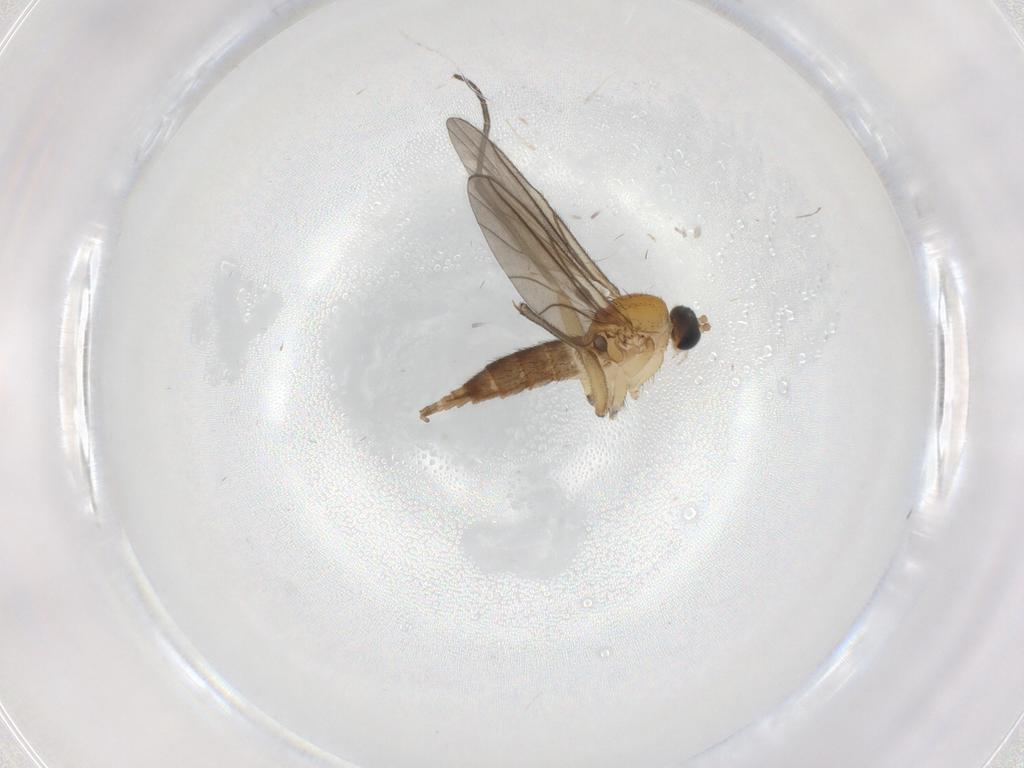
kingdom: Animalia
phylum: Arthropoda
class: Insecta
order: Diptera
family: Sciaridae
